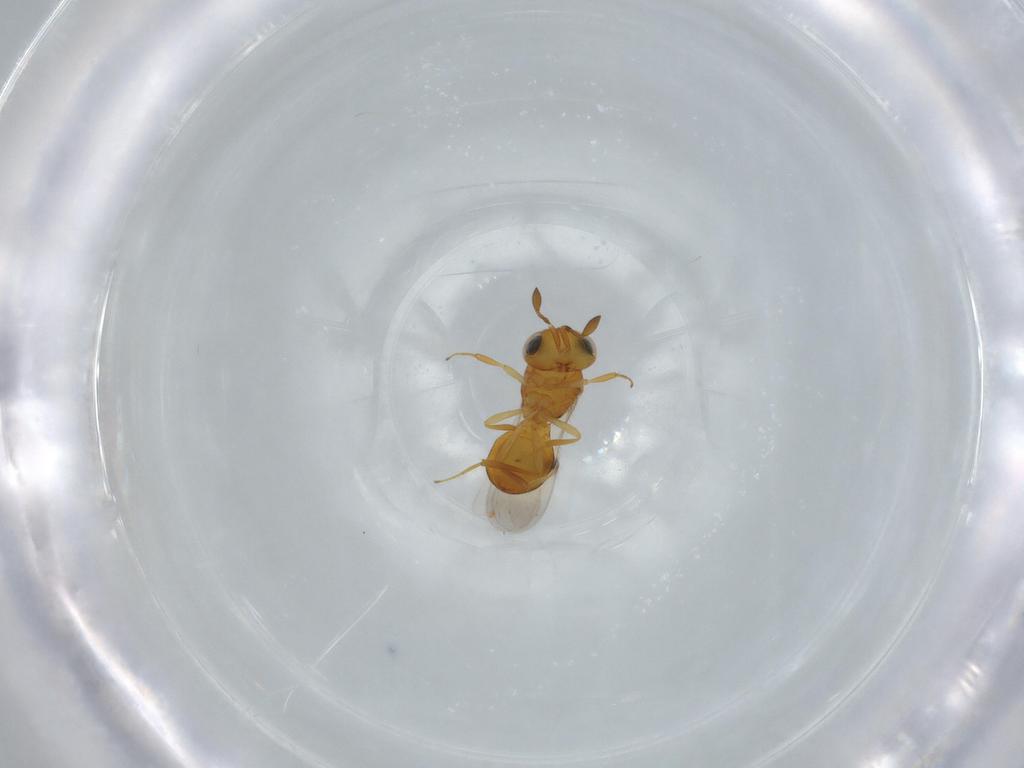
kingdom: Animalia
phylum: Arthropoda
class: Insecta
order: Hymenoptera
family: Scelionidae
